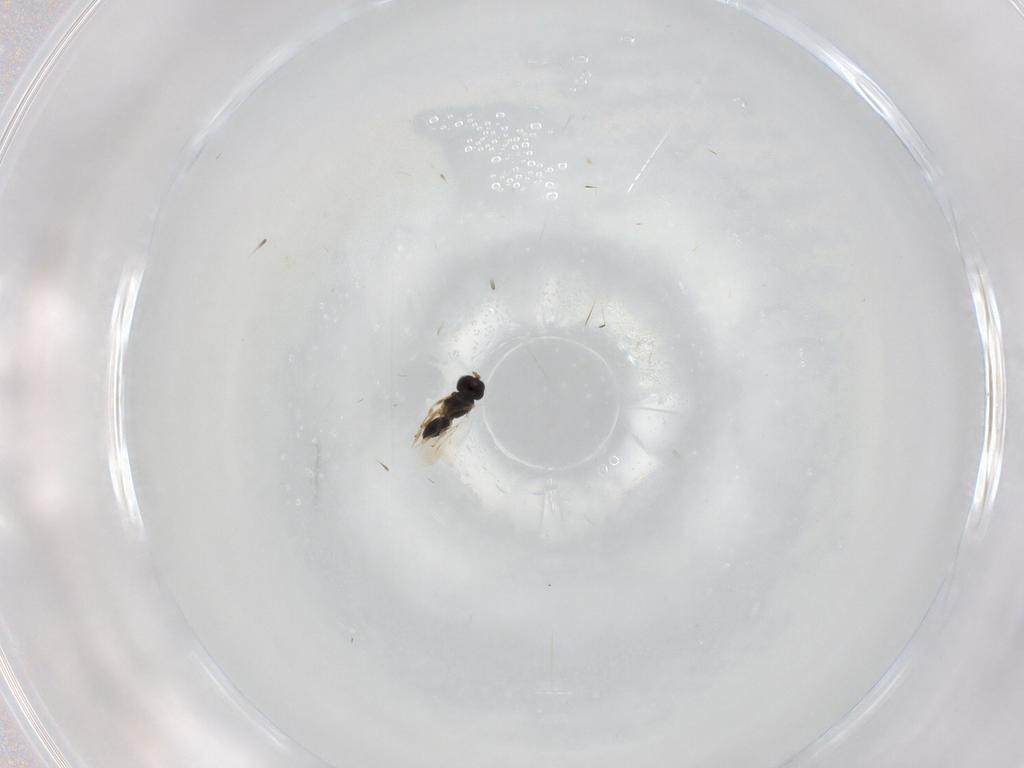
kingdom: Animalia
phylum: Arthropoda
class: Insecta
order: Hymenoptera
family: Scelionidae
